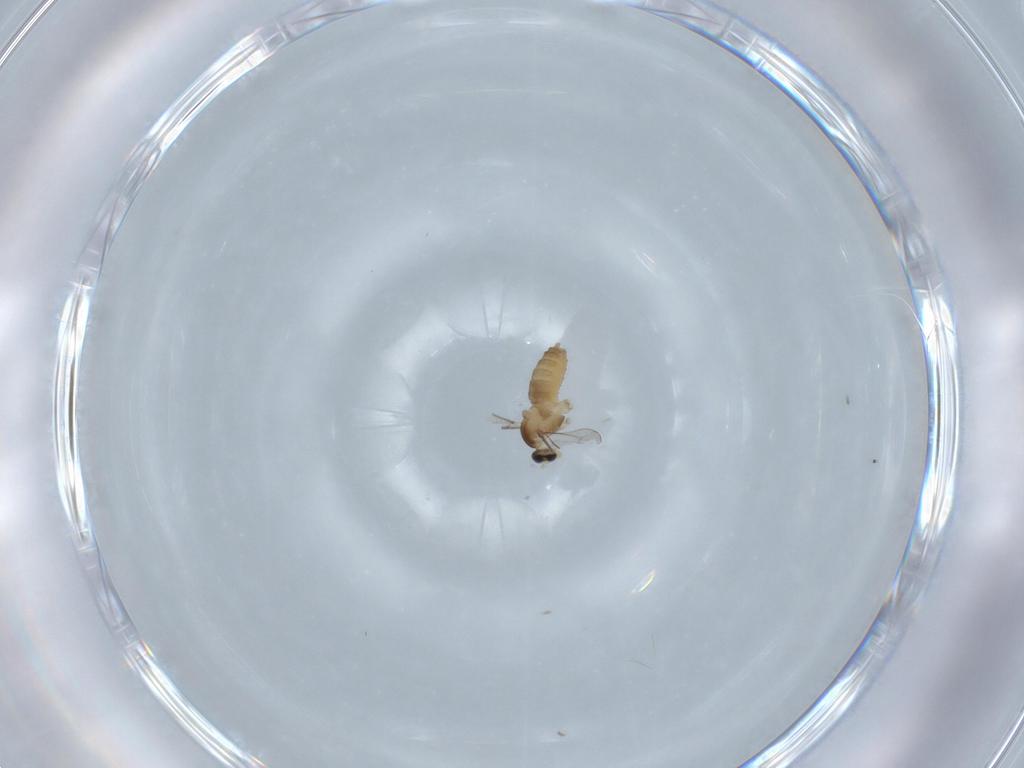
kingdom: Animalia
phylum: Arthropoda
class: Insecta
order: Diptera
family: Cecidomyiidae
